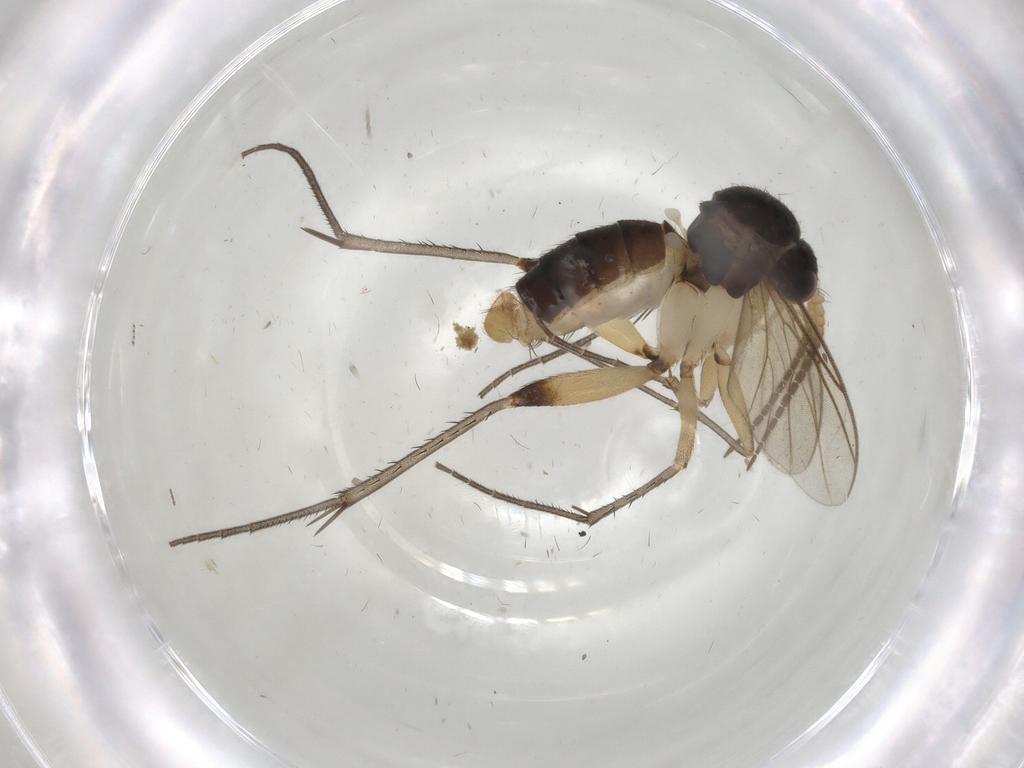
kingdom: Animalia
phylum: Arthropoda
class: Insecta
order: Diptera
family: Mycetophilidae
